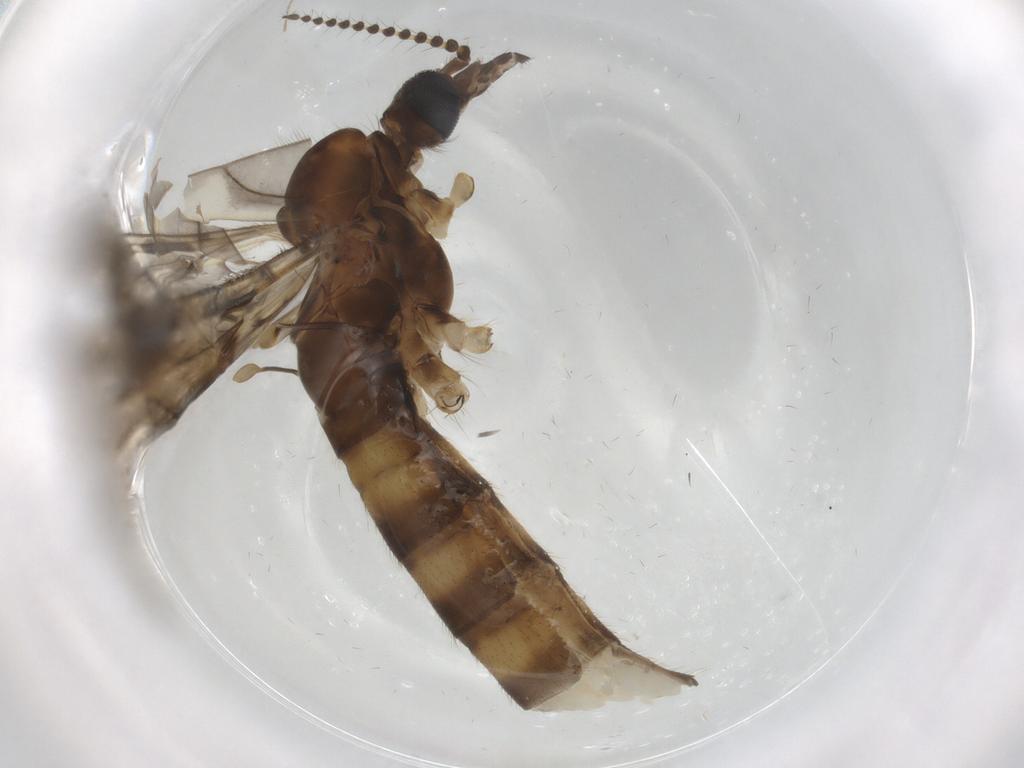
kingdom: Animalia
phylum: Arthropoda
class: Insecta
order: Diptera
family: Limoniidae
